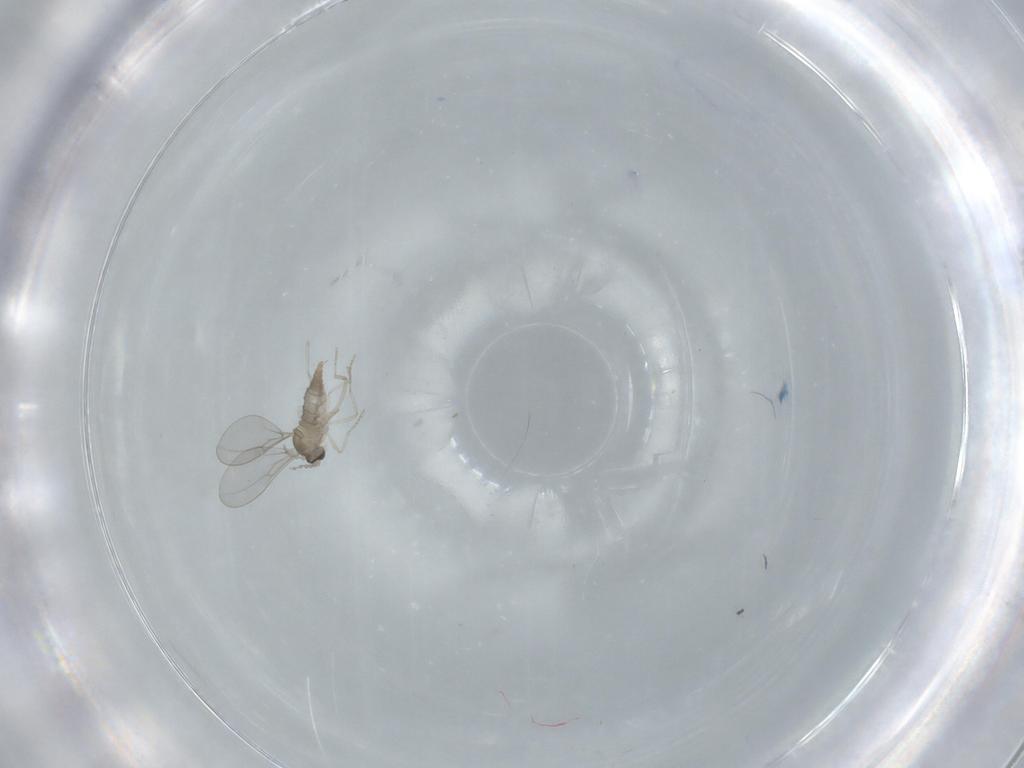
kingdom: Animalia
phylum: Arthropoda
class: Insecta
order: Diptera
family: Cecidomyiidae
